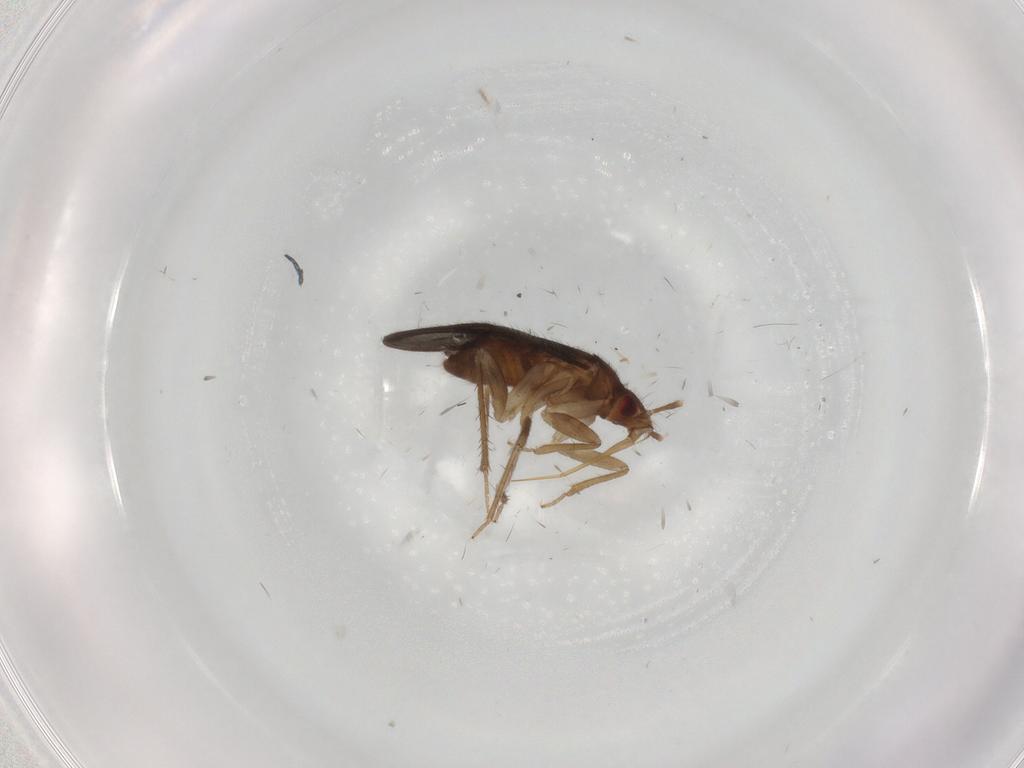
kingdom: Animalia
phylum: Arthropoda
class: Insecta
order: Hemiptera
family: Ceratocombidae
